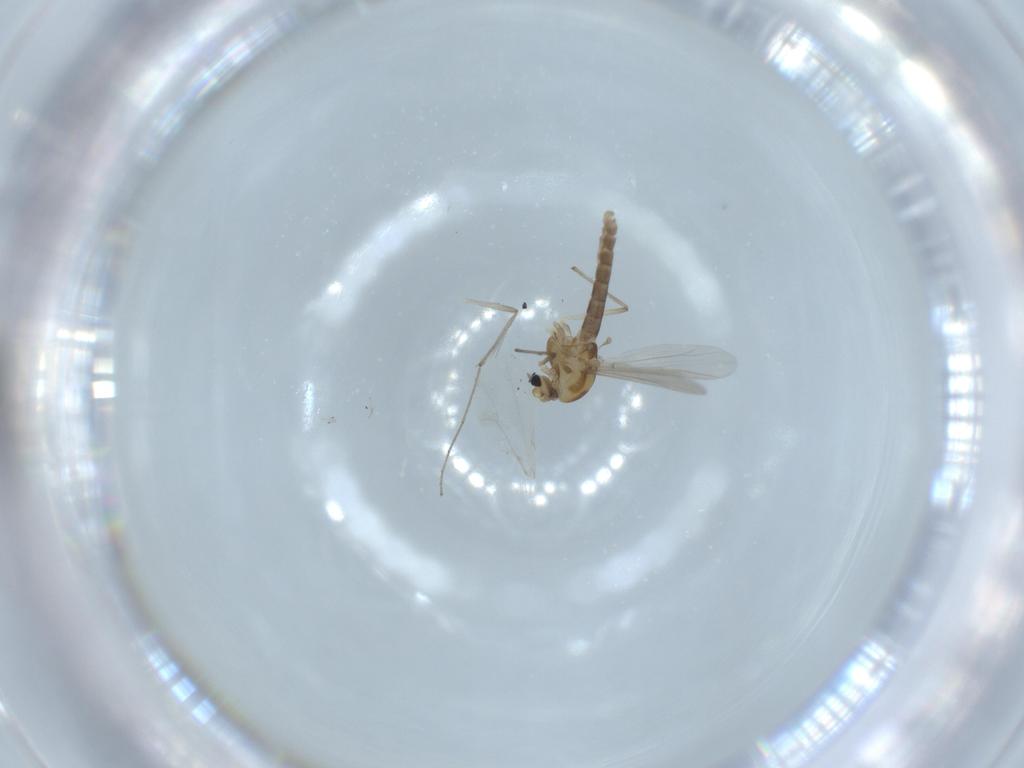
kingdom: Animalia
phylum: Arthropoda
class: Insecta
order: Diptera
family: Chironomidae
